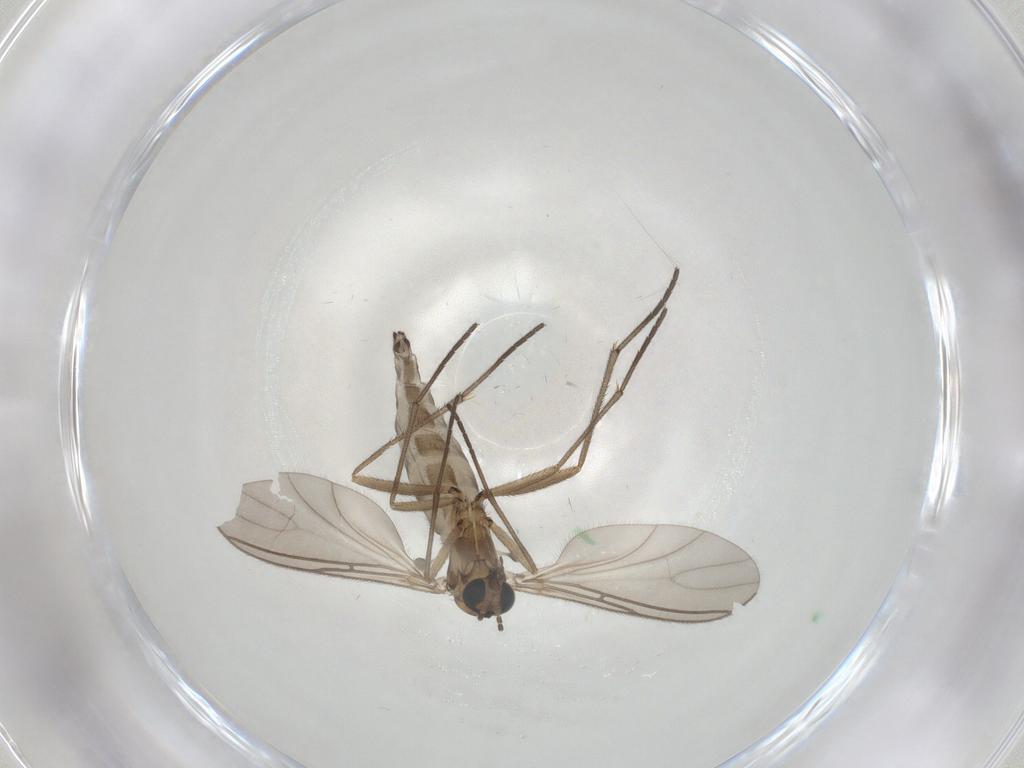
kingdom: Animalia
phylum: Arthropoda
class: Insecta
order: Diptera
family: Sciaridae
